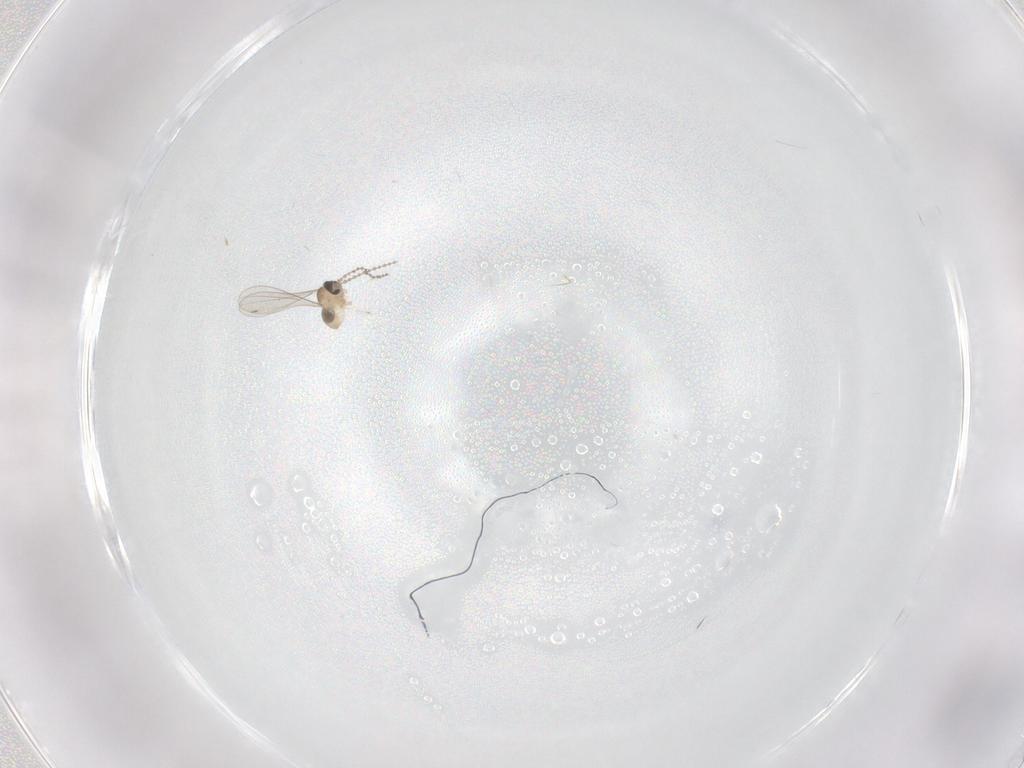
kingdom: Animalia
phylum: Arthropoda
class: Insecta
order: Diptera
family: Cecidomyiidae
